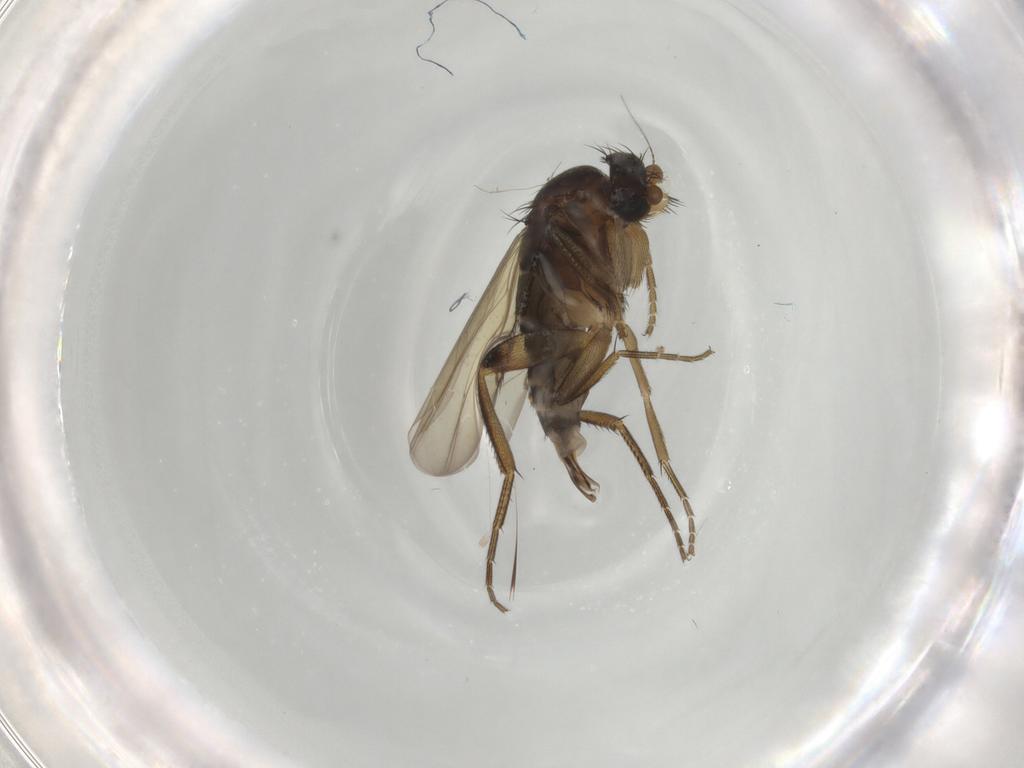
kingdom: Animalia
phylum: Arthropoda
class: Insecta
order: Diptera
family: Phoridae
